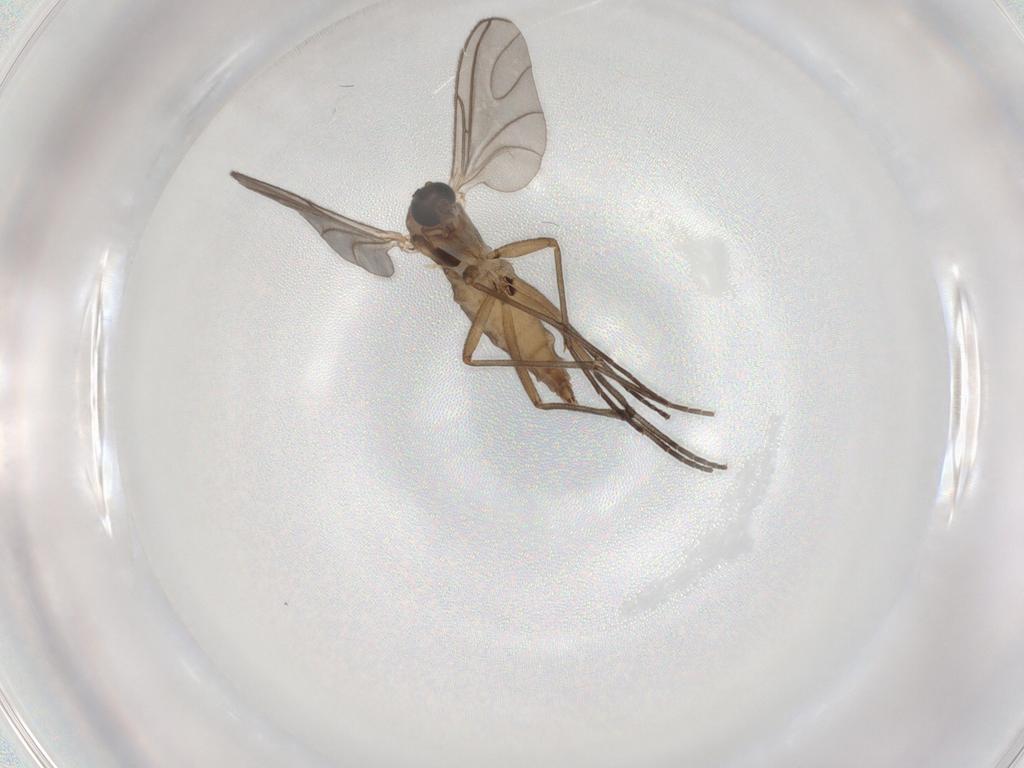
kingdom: Animalia
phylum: Arthropoda
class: Insecta
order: Diptera
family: Sciaridae
